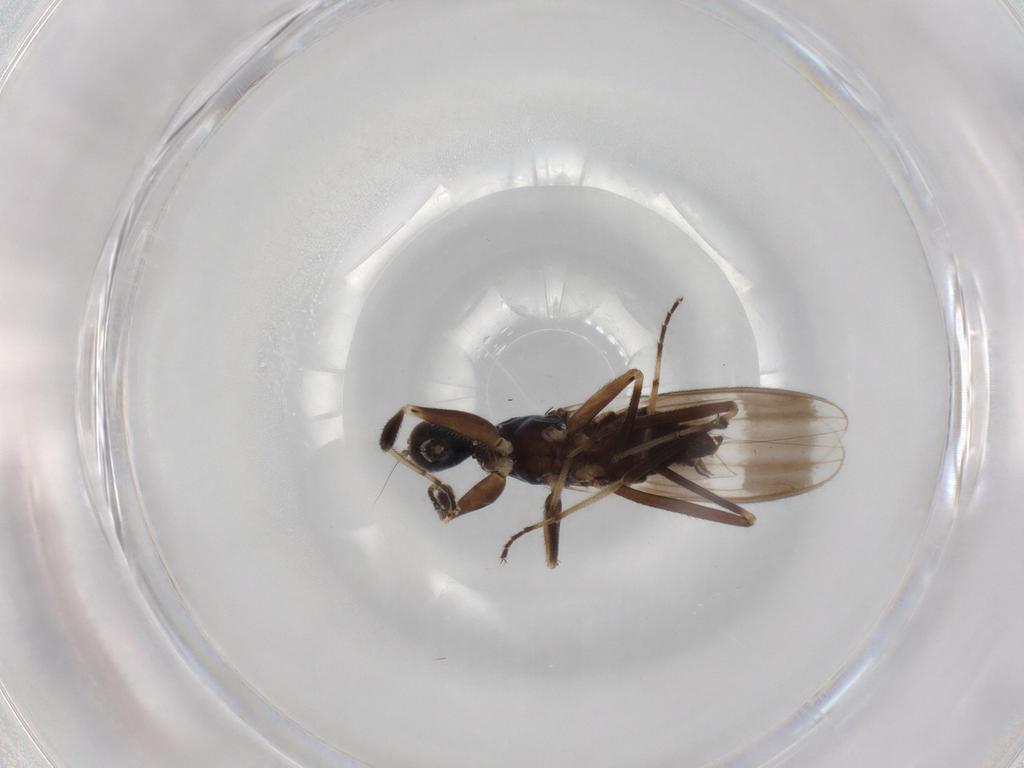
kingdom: Animalia
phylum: Arthropoda
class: Insecta
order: Diptera
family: Hybotidae
